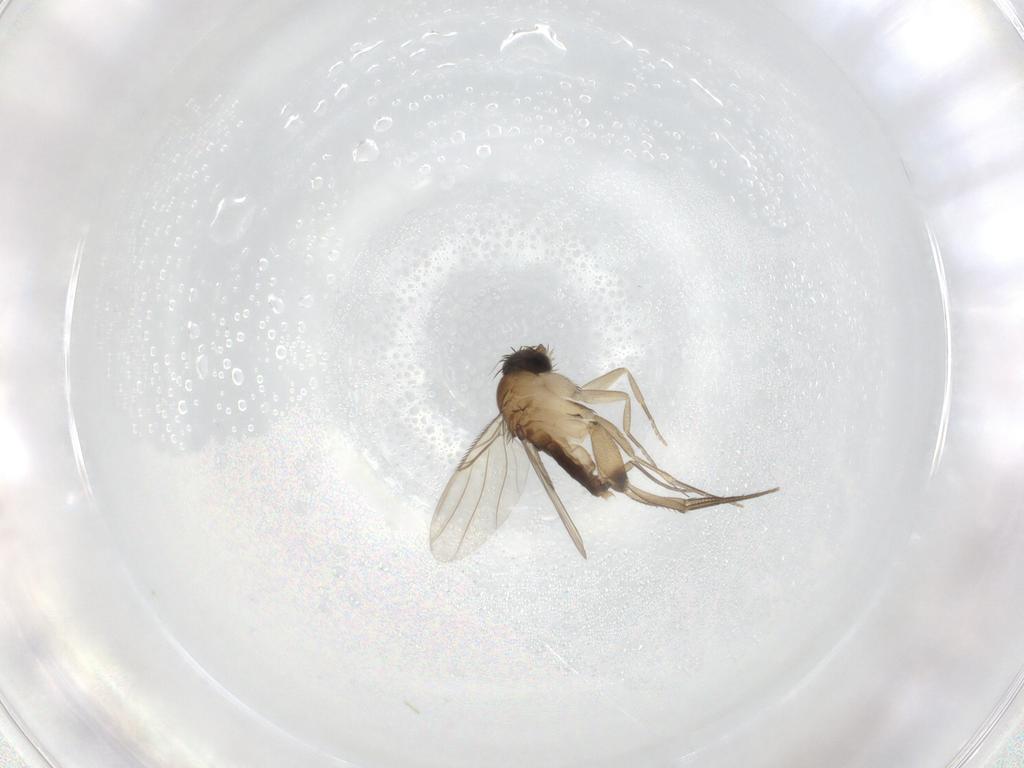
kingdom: Animalia
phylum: Arthropoda
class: Insecta
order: Diptera
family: Phoridae
